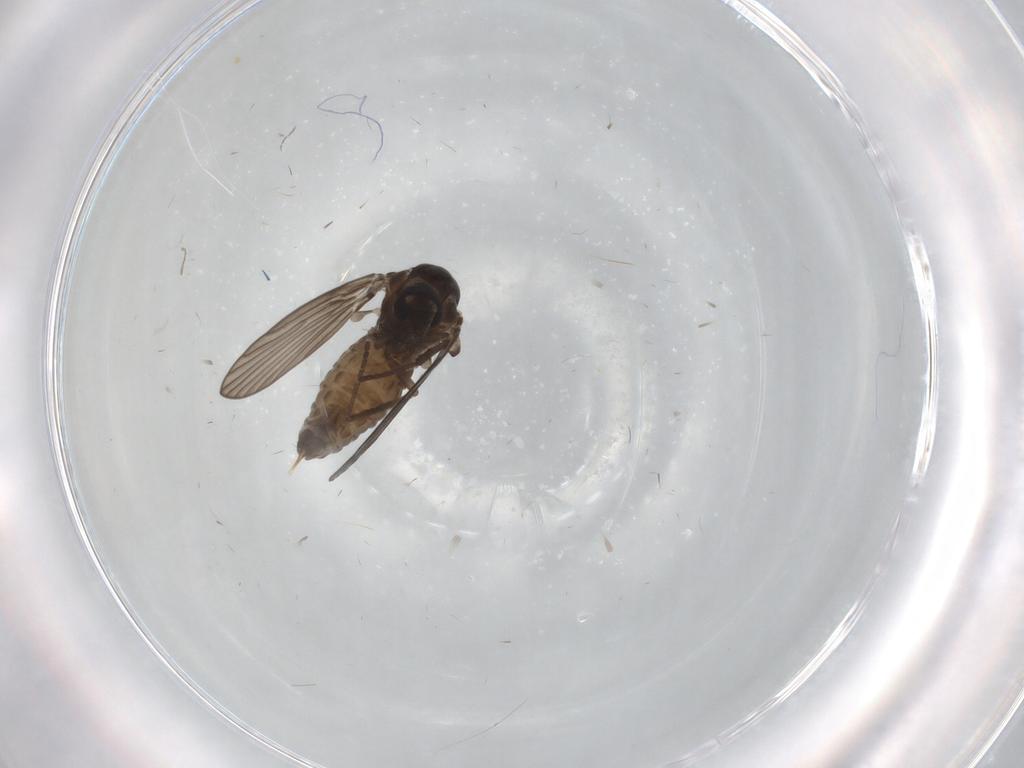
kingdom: Animalia
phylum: Arthropoda
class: Insecta
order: Diptera
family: Psychodidae
